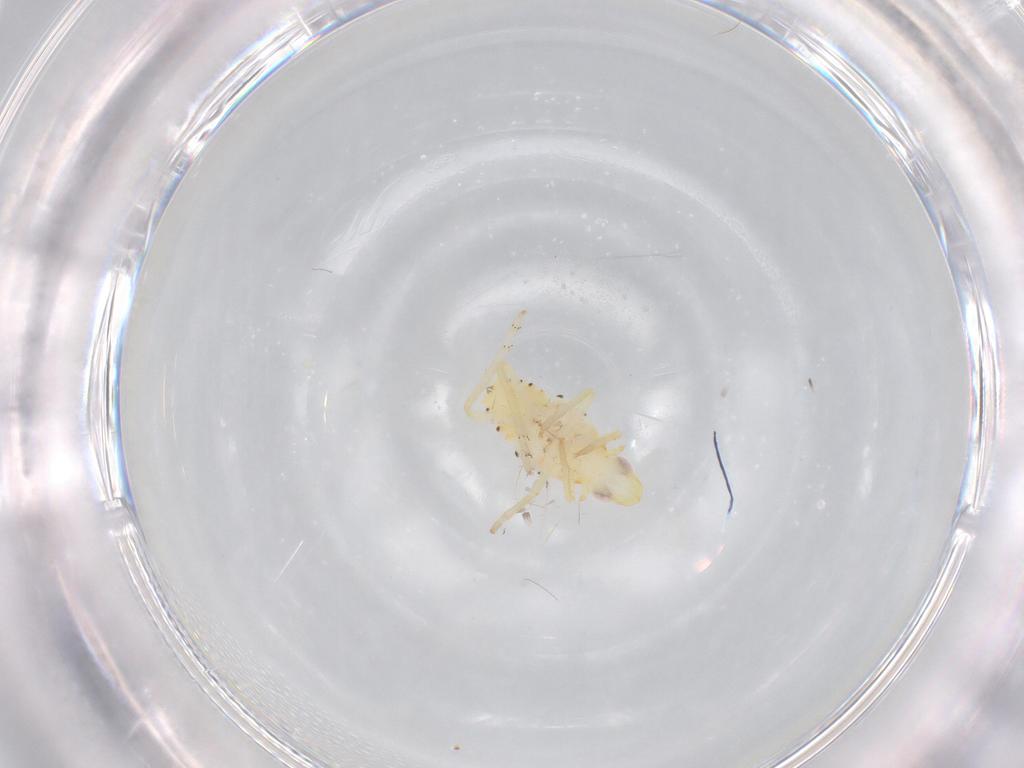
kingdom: Animalia
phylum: Arthropoda
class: Insecta
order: Hemiptera
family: Tropiduchidae
